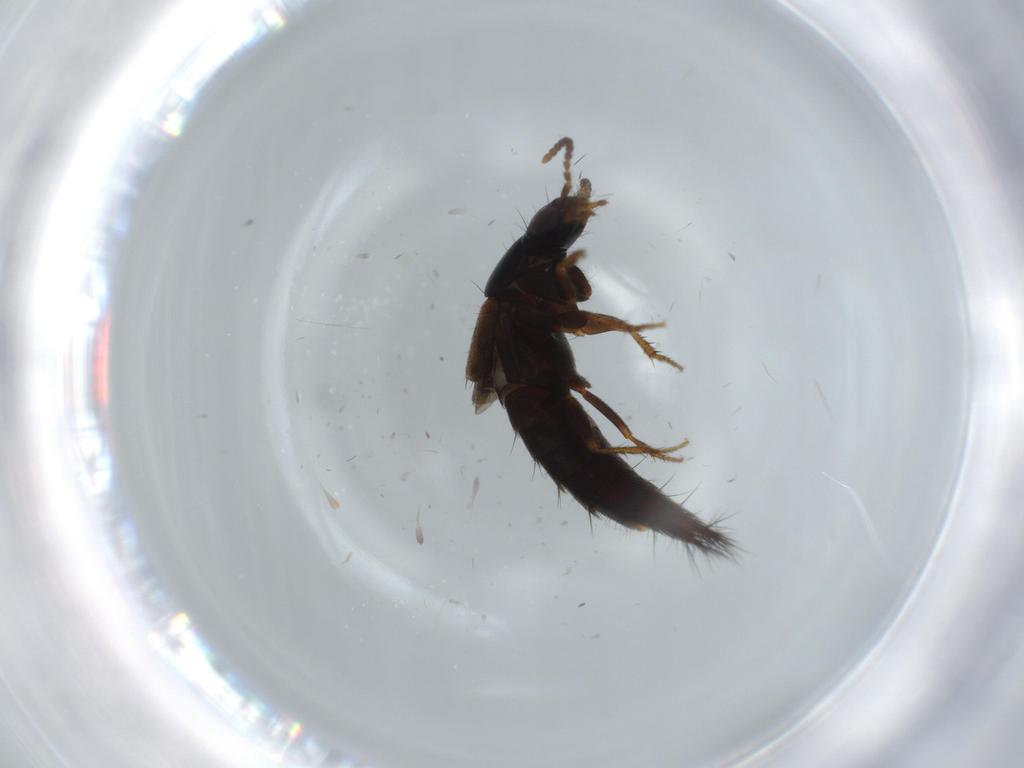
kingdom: Animalia
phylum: Arthropoda
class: Insecta
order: Coleoptera
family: Staphylinidae
